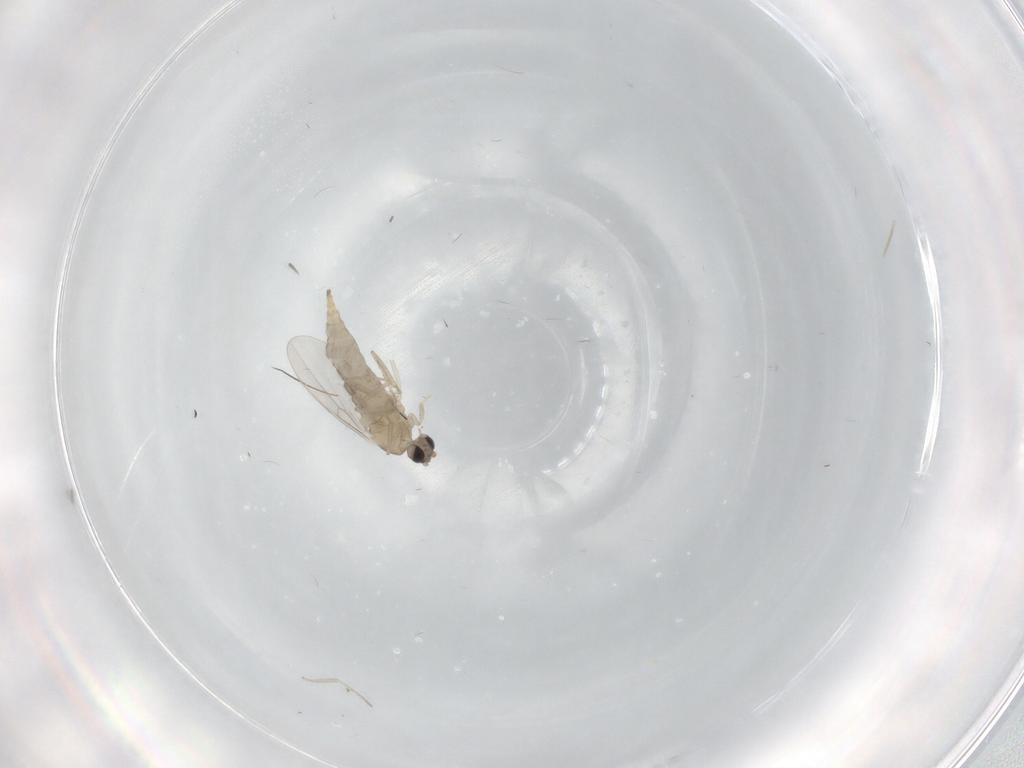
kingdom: Animalia
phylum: Arthropoda
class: Insecta
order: Diptera
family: Cecidomyiidae
